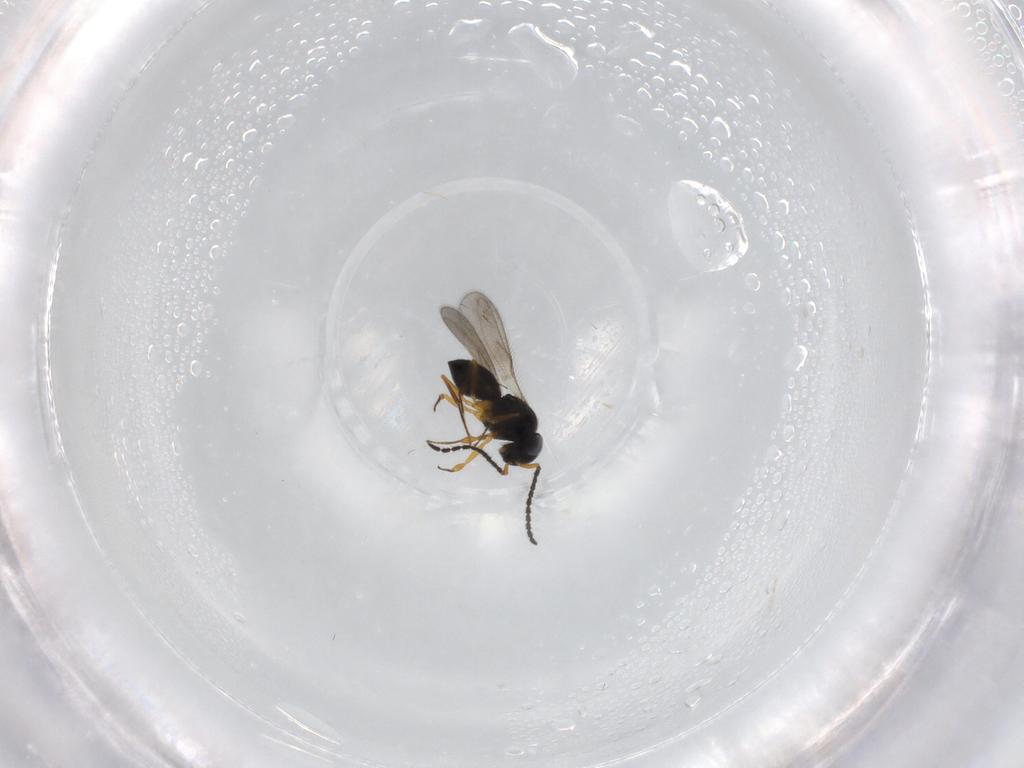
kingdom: Animalia
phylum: Arthropoda
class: Insecta
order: Hymenoptera
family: Scelionidae
